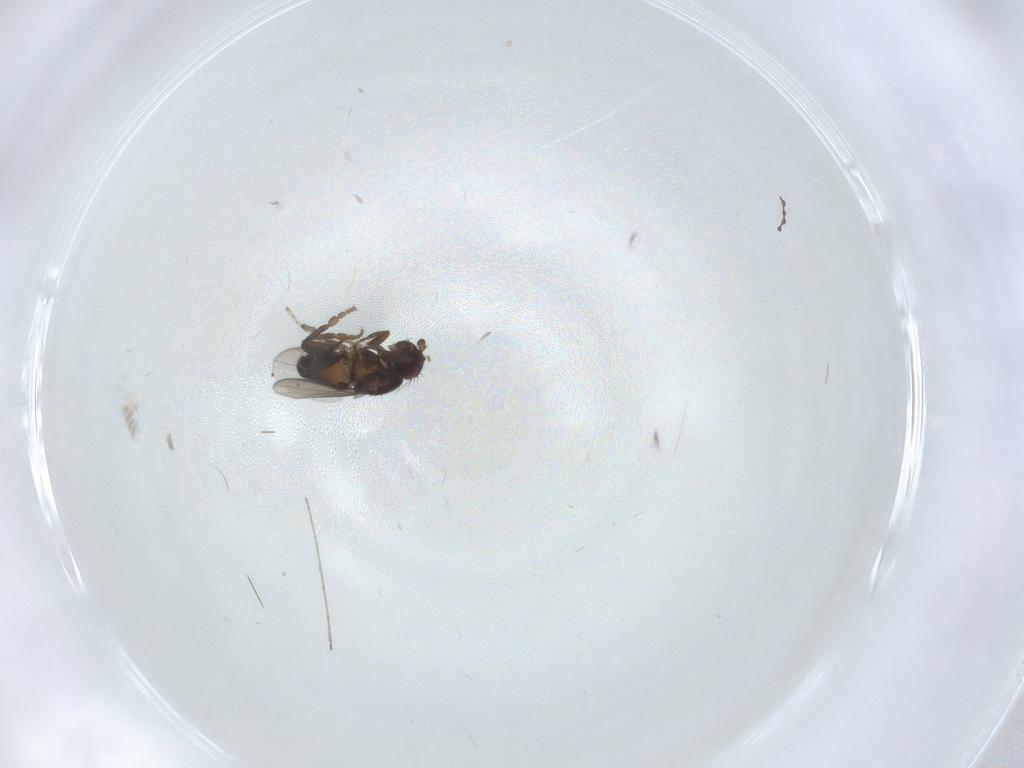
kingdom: Animalia
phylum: Arthropoda
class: Insecta
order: Diptera
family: Sphaeroceridae
